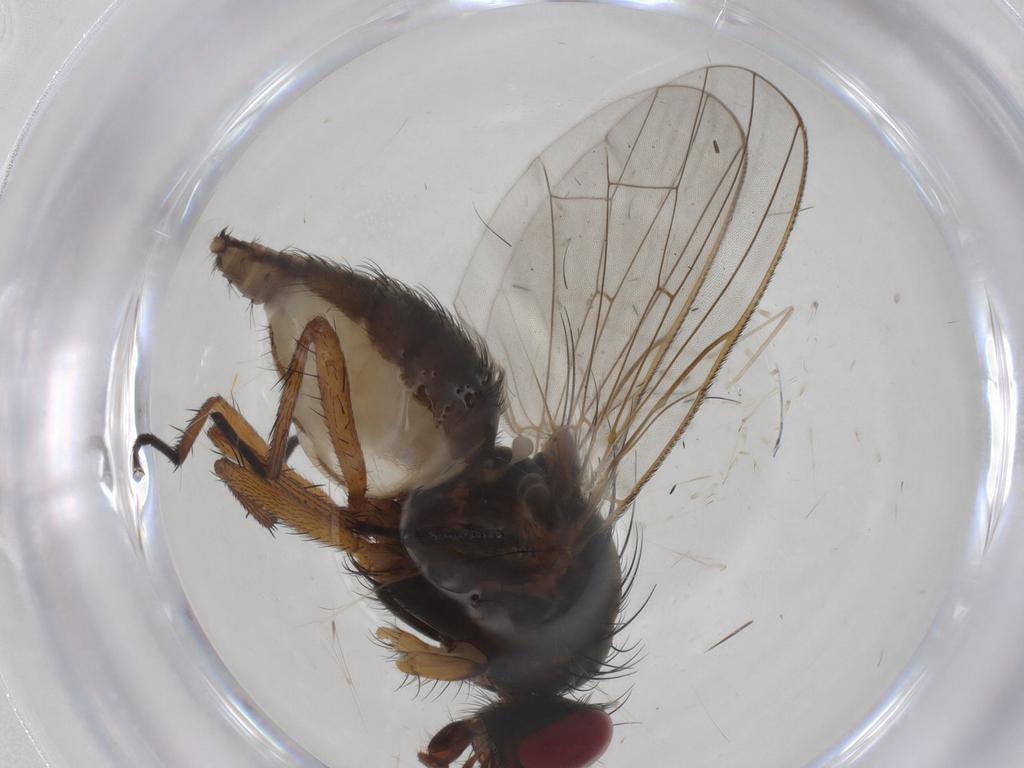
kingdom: Animalia
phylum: Arthropoda
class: Insecta
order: Diptera
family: Anthomyiidae
